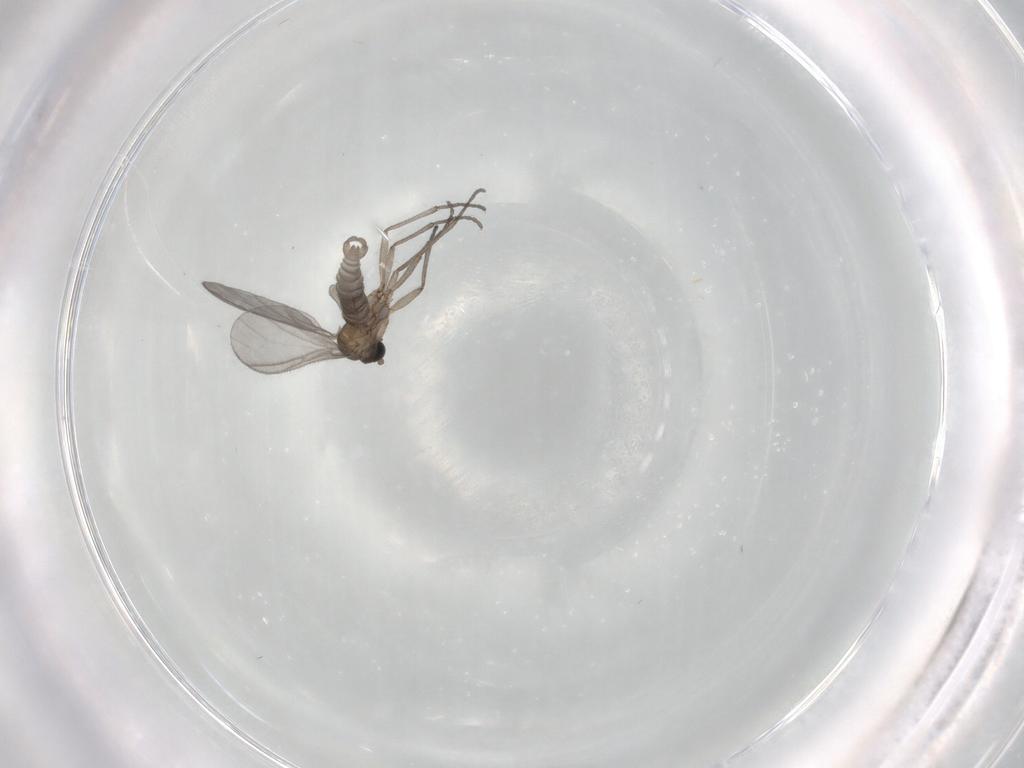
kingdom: Animalia
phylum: Arthropoda
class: Insecta
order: Diptera
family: Sciaridae
